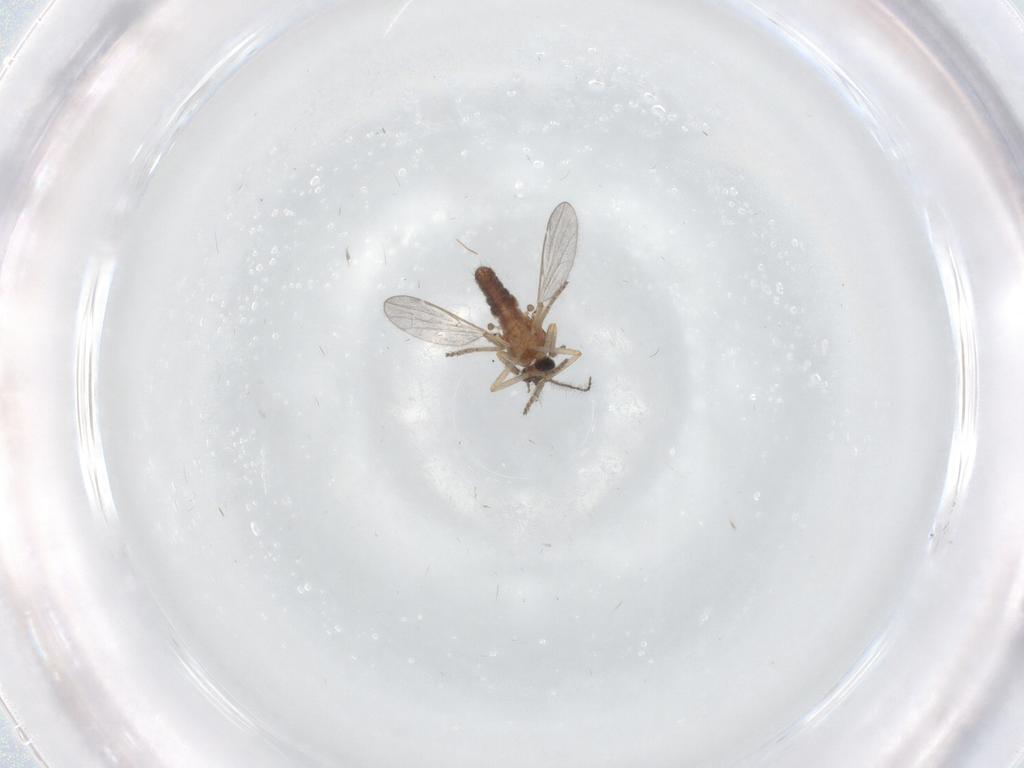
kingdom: Animalia
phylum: Arthropoda
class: Insecta
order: Diptera
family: Ceratopogonidae
